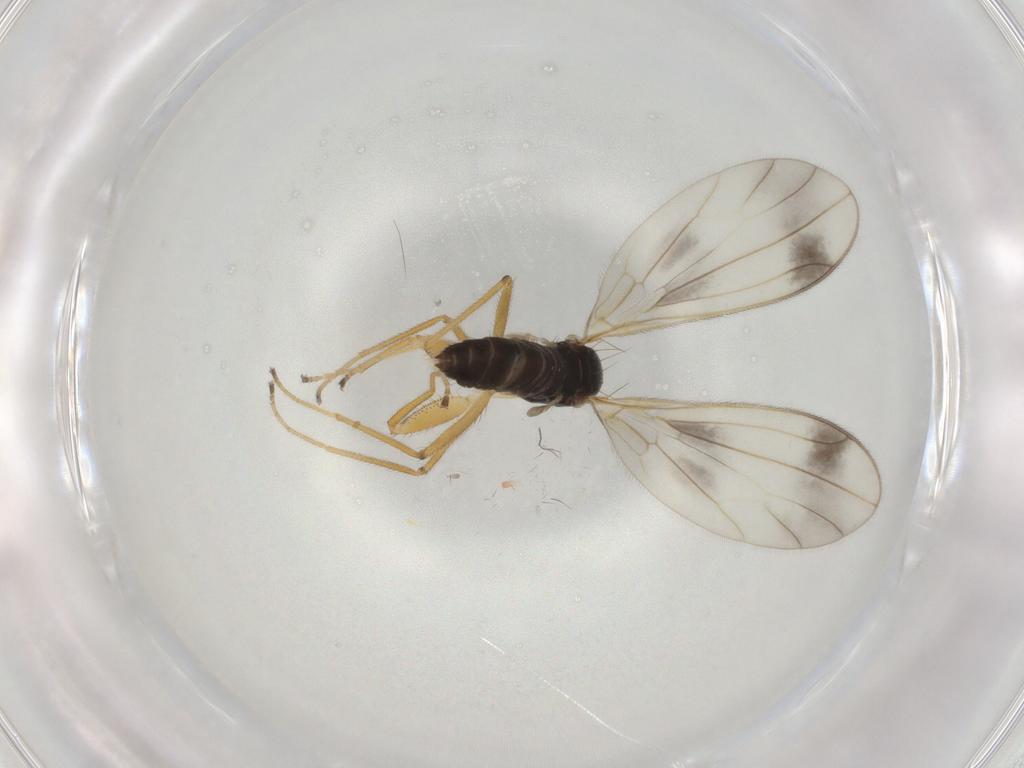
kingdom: Animalia
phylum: Arthropoda
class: Insecta
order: Diptera
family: Muscidae
